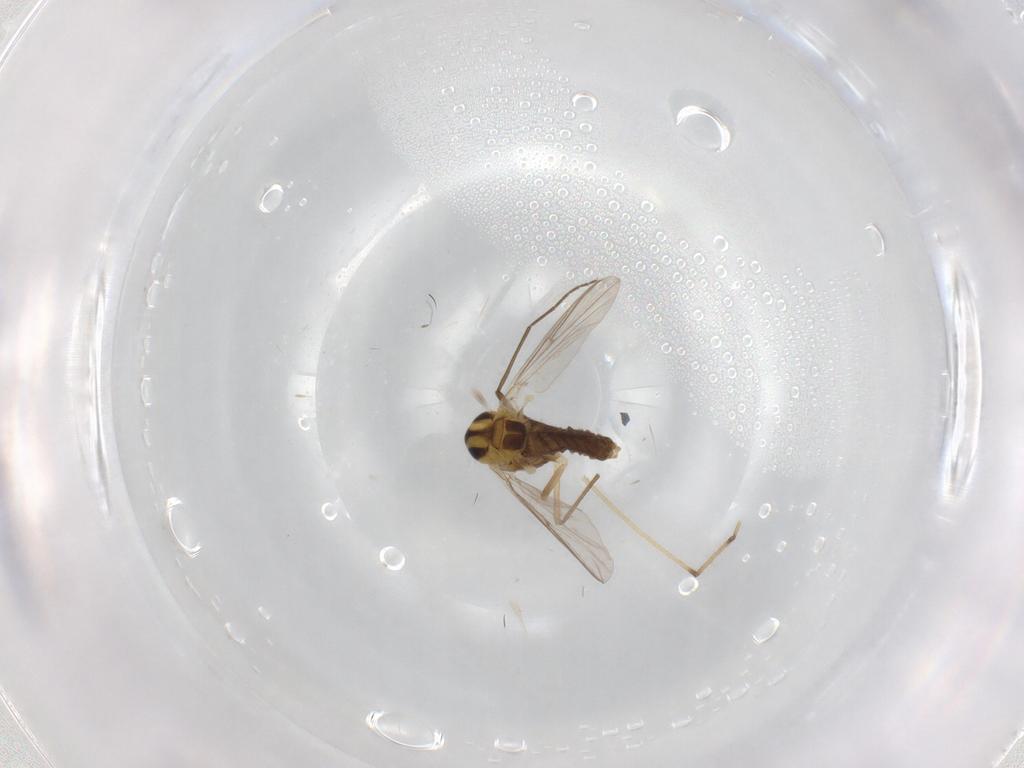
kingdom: Animalia
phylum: Arthropoda
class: Insecta
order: Diptera
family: Chironomidae
